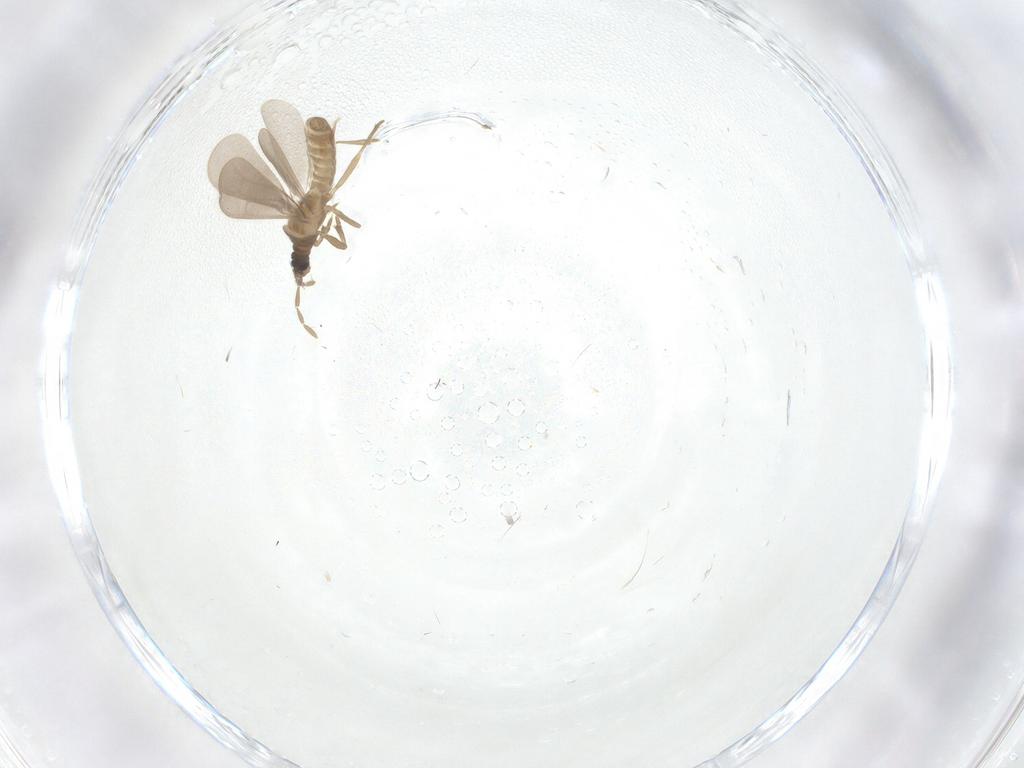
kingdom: Animalia
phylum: Arthropoda
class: Insecta
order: Hemiptera
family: Enicocephalidae
